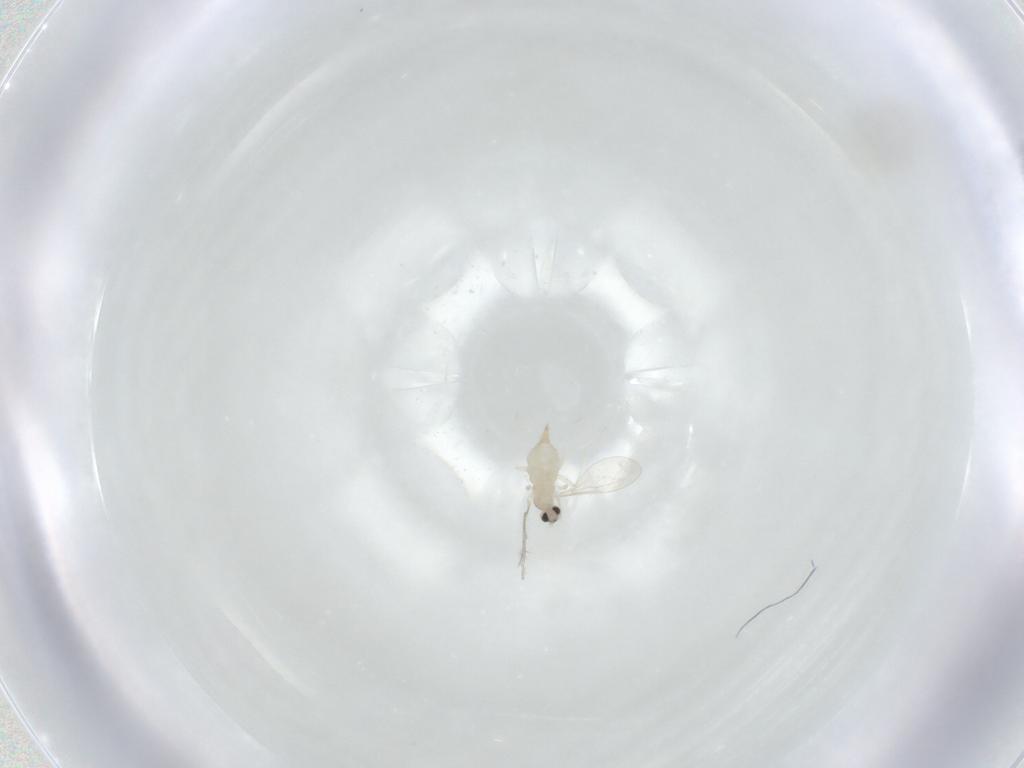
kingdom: Animalia
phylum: Arthropoda
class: Insecta
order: Diptera
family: Cecidomyiidae
